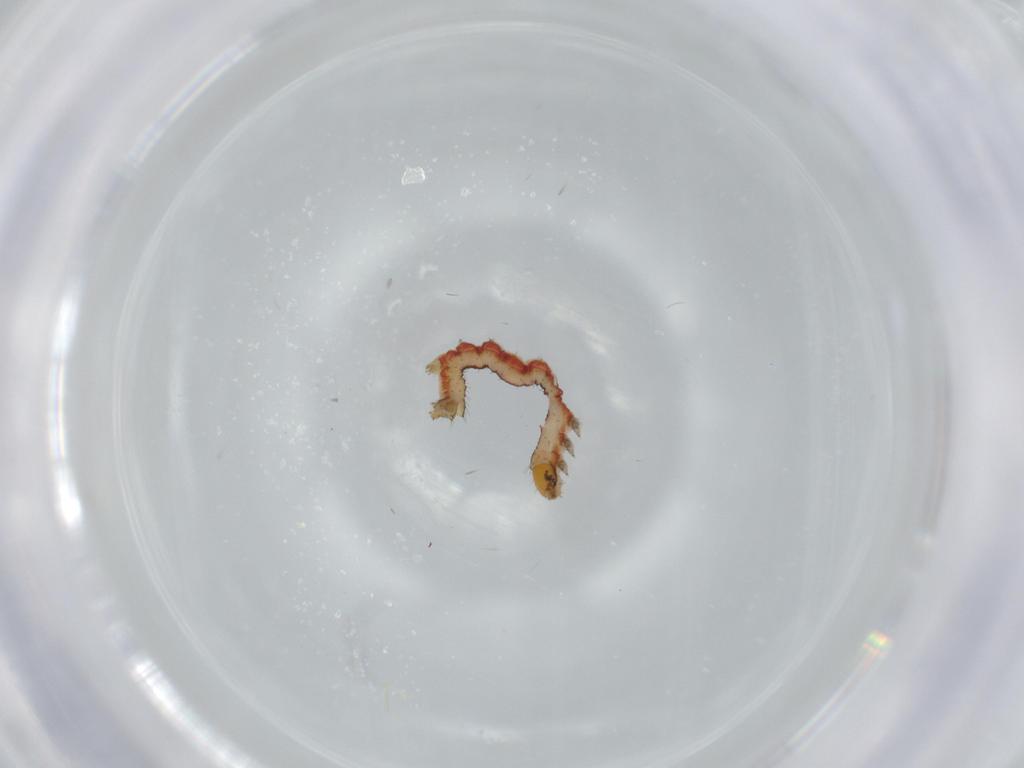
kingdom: Animalia
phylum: Arthropoda
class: Insecta
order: Lepidoptera
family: Geometridae
